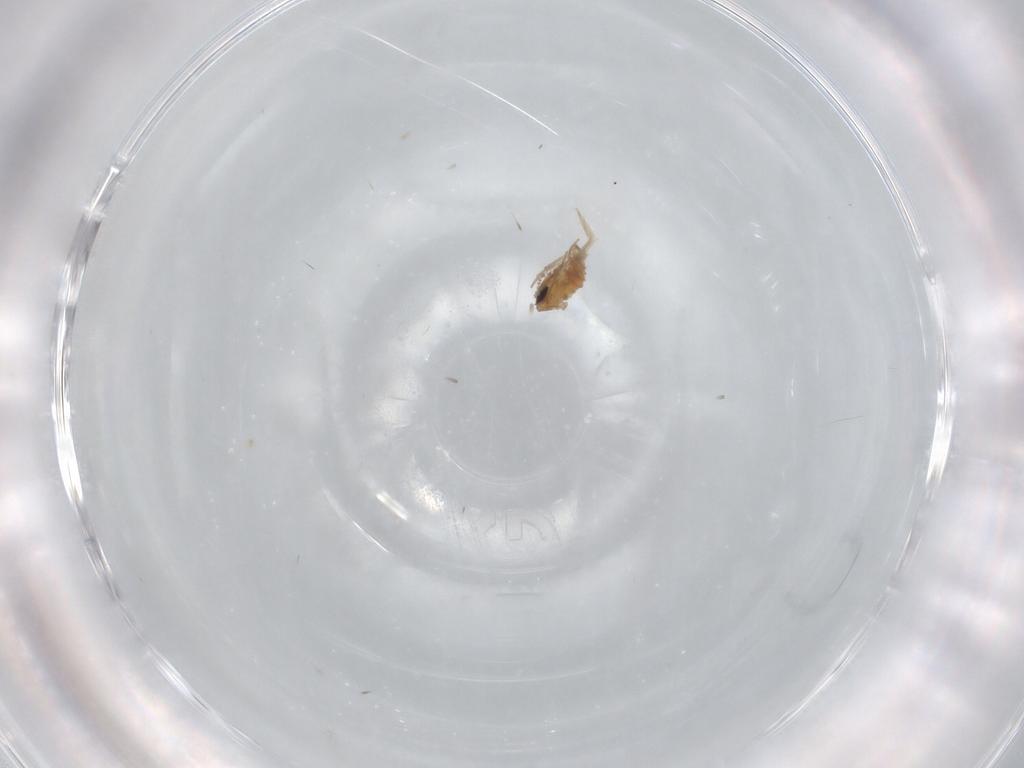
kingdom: Animalia
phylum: Arthropoda
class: Insecta
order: Diptera
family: Psychodidae
